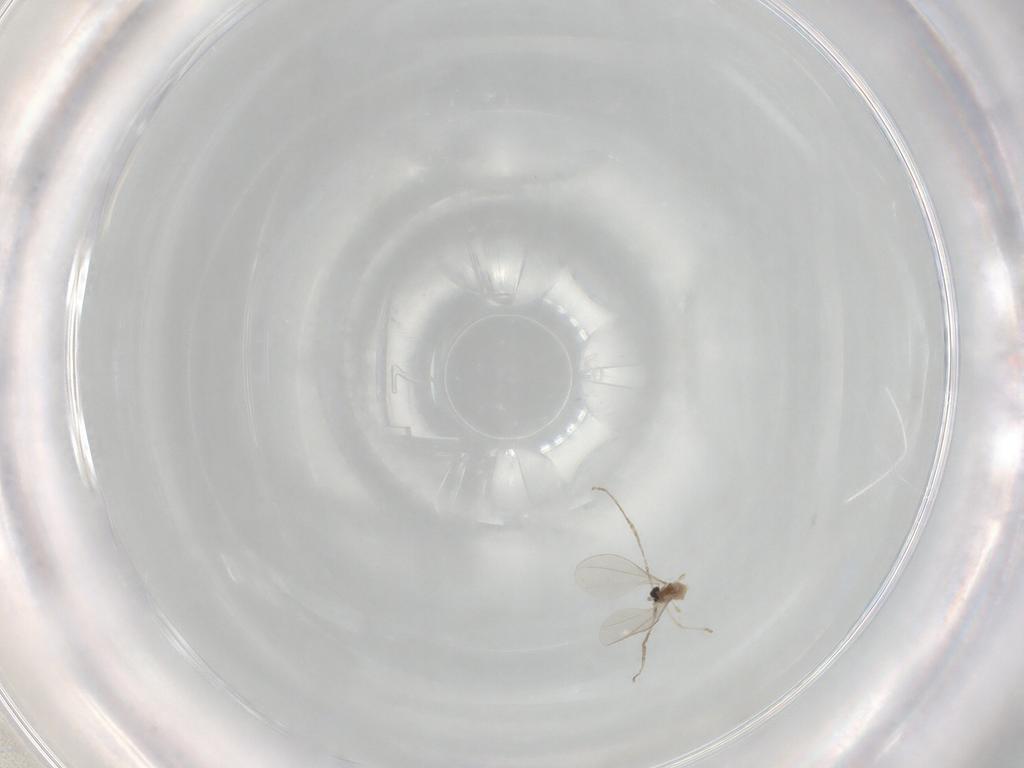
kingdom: Animalia
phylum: Arthropoda
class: Insecta
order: Diptera
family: Cecidomyiidae
